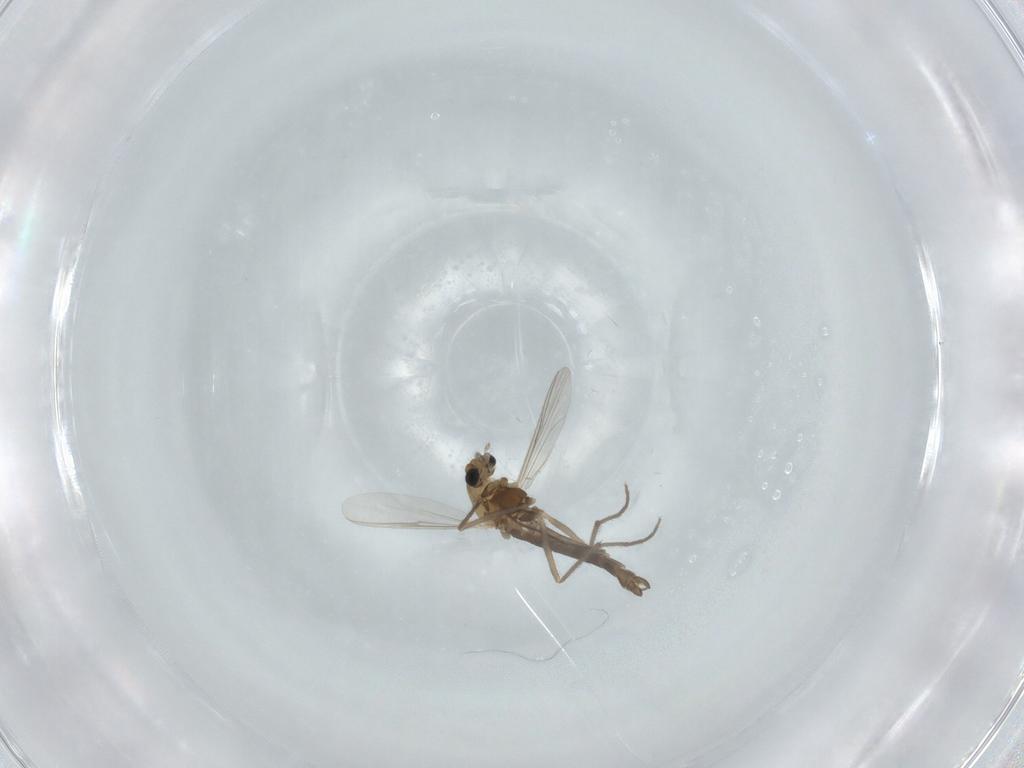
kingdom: Animalia
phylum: Arthropoda
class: Insecta
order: Diptera
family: Chironomidae
